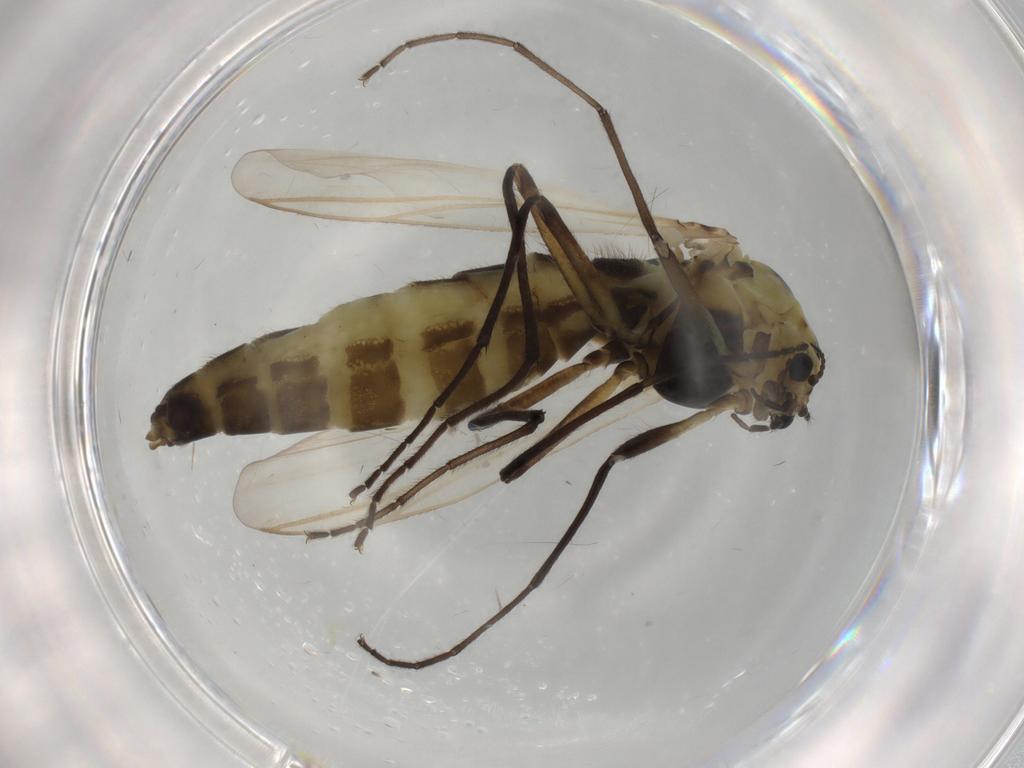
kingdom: Animalia
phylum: Arthropoda
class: Insecta
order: Diptera
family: Muscidae
